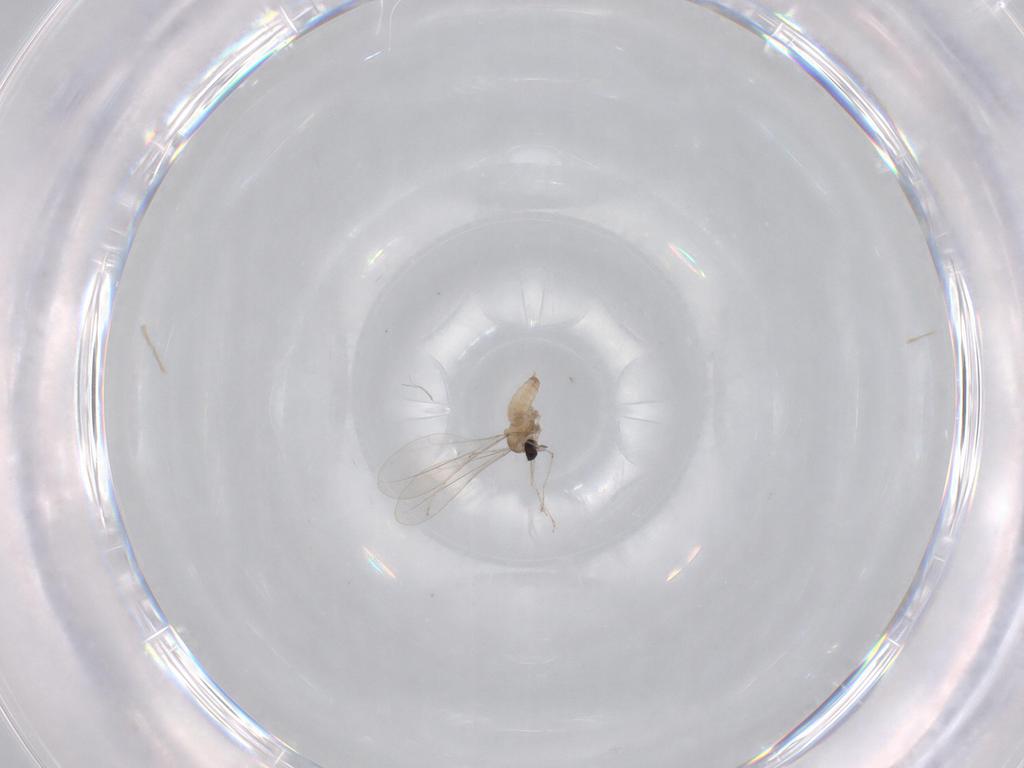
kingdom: Animalia
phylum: Arthropoda
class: Insecta
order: Diptera
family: Cecidomyiidae
